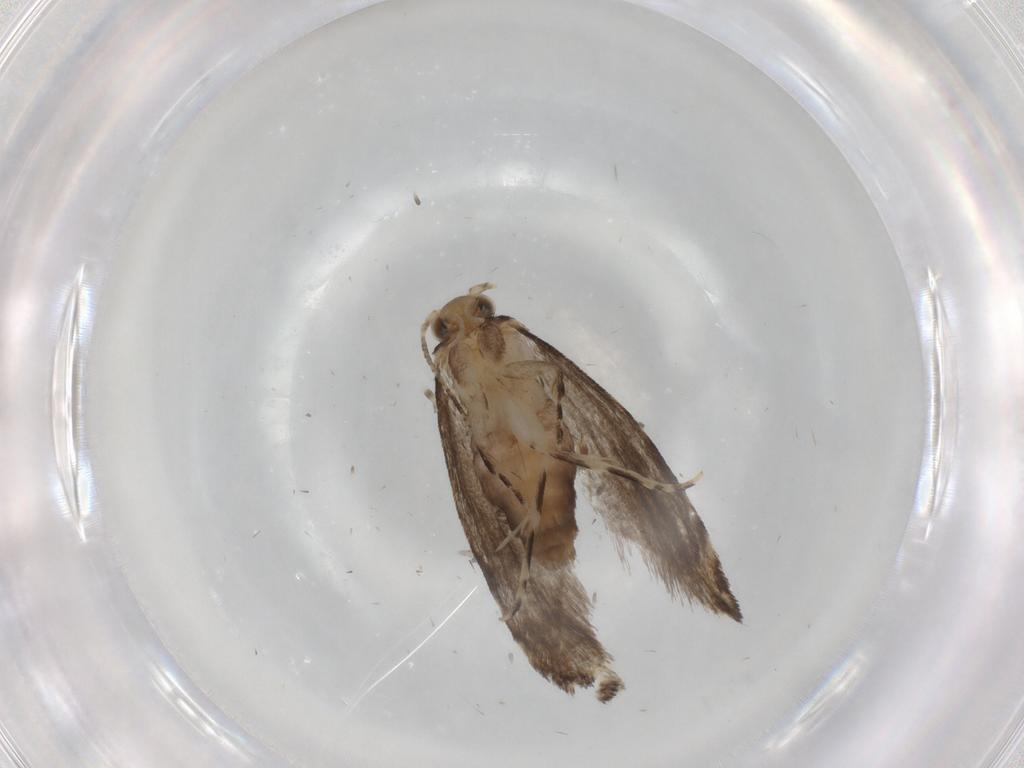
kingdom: Animalia
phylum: Arthropoda
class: Insecta
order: Lepidoptera
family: Tineidae
